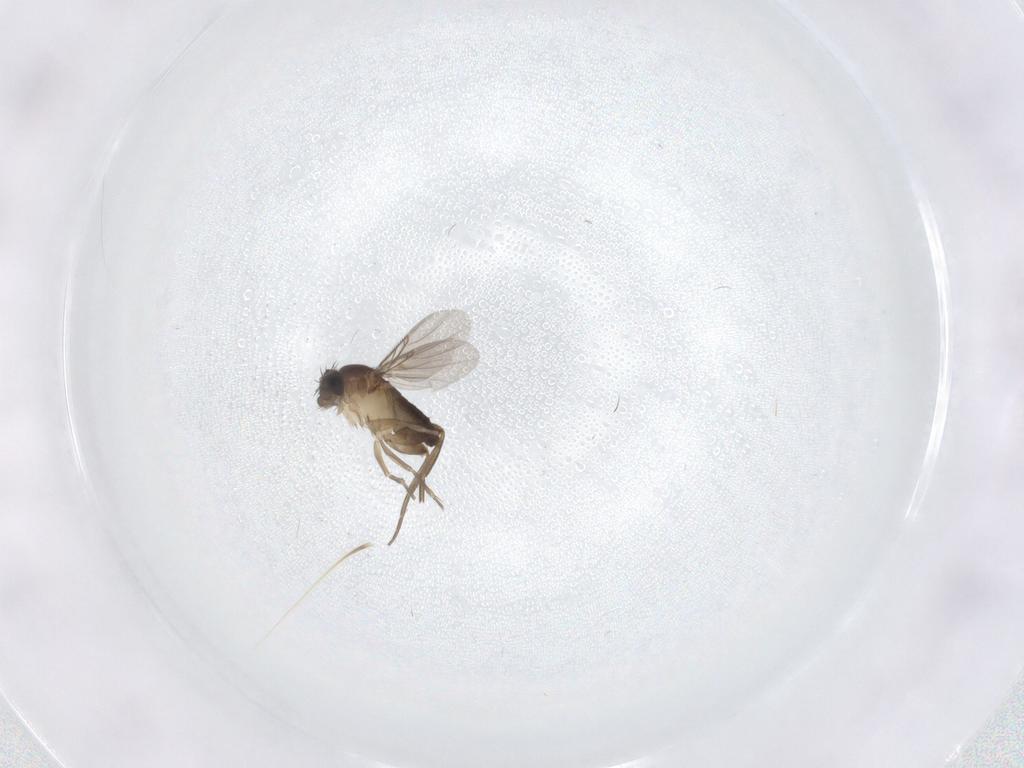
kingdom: Animalia
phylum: Arthropoda
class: Insecta
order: Diptera
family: Phoridae
